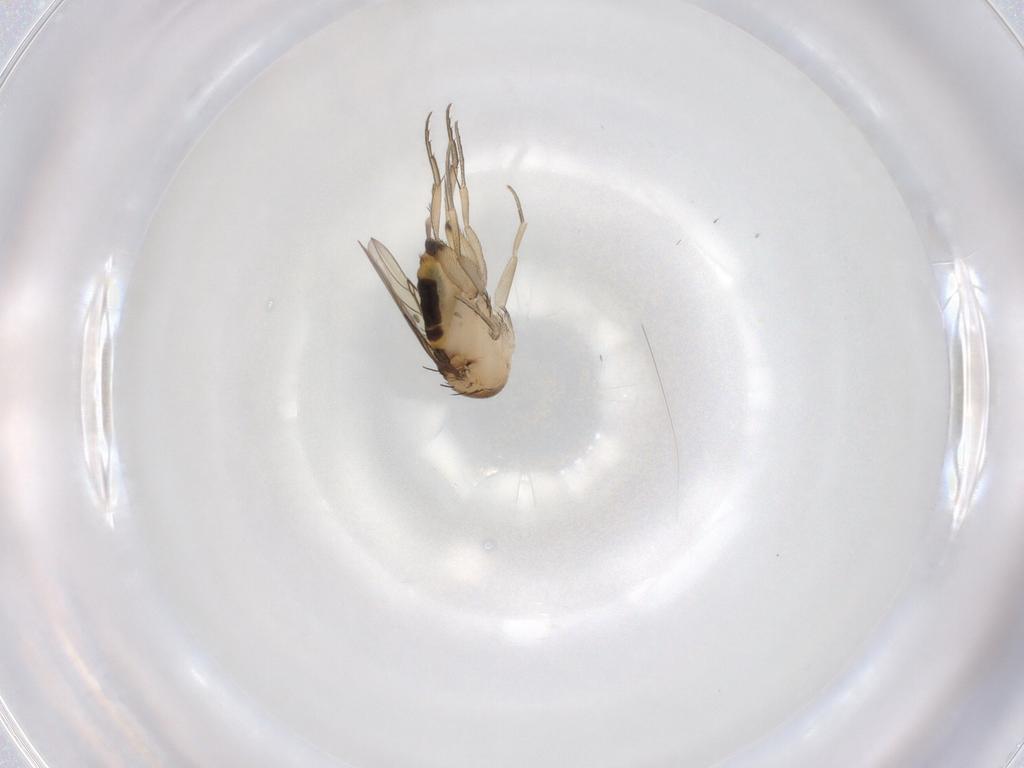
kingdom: Animalia
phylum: Arthropoda
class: Insecta
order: Diptera
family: Phoridae
